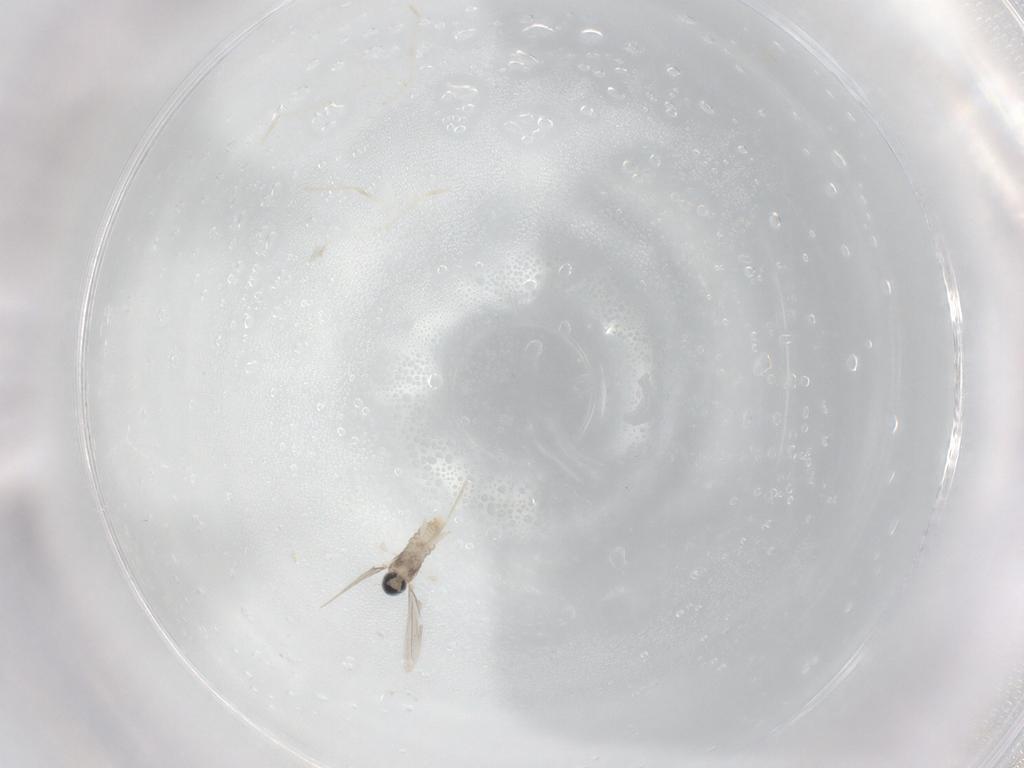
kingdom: Animalia
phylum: Arthropoda
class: Insecta
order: Diptera
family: Cecidomyiidae
